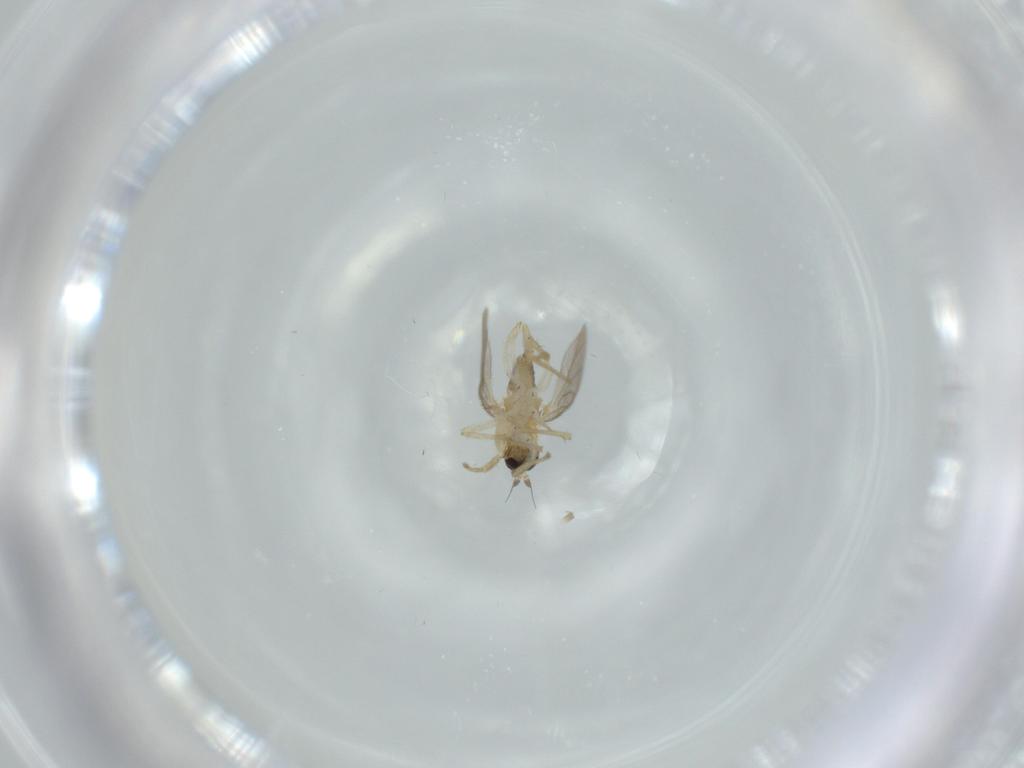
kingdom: Animalia
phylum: Arthropoda
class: Insecta
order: Diptera
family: Hybotidae
